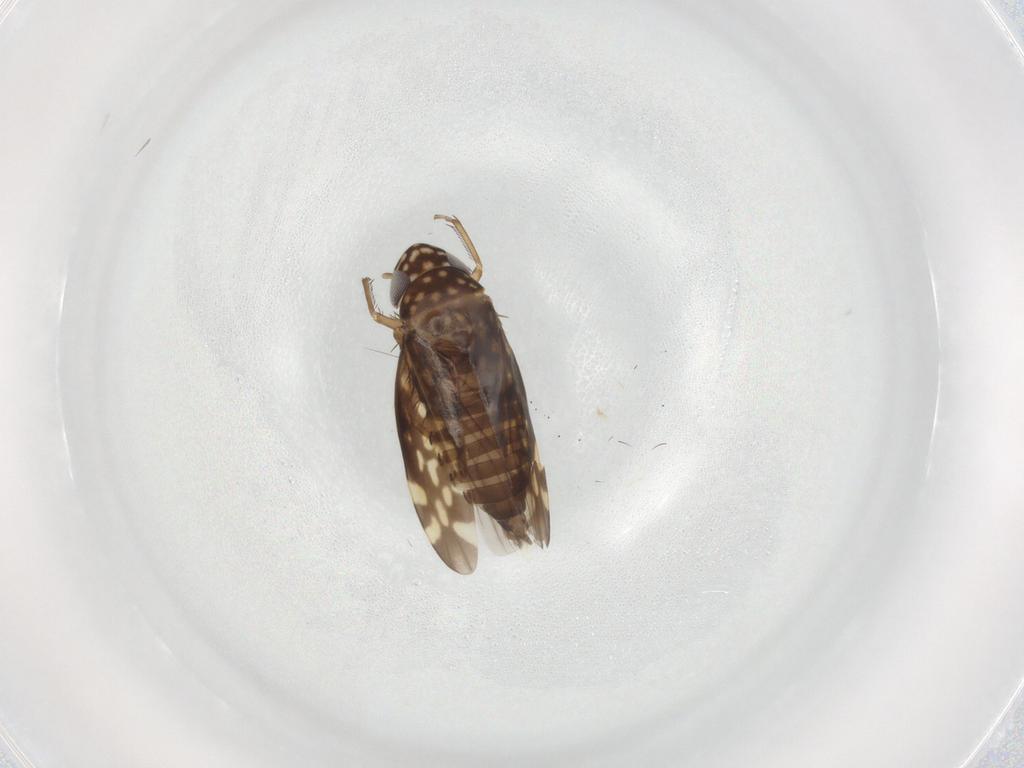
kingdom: Animalia
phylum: Arthropoda
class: Insecta
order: Hemiptera
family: Cicadellidae
